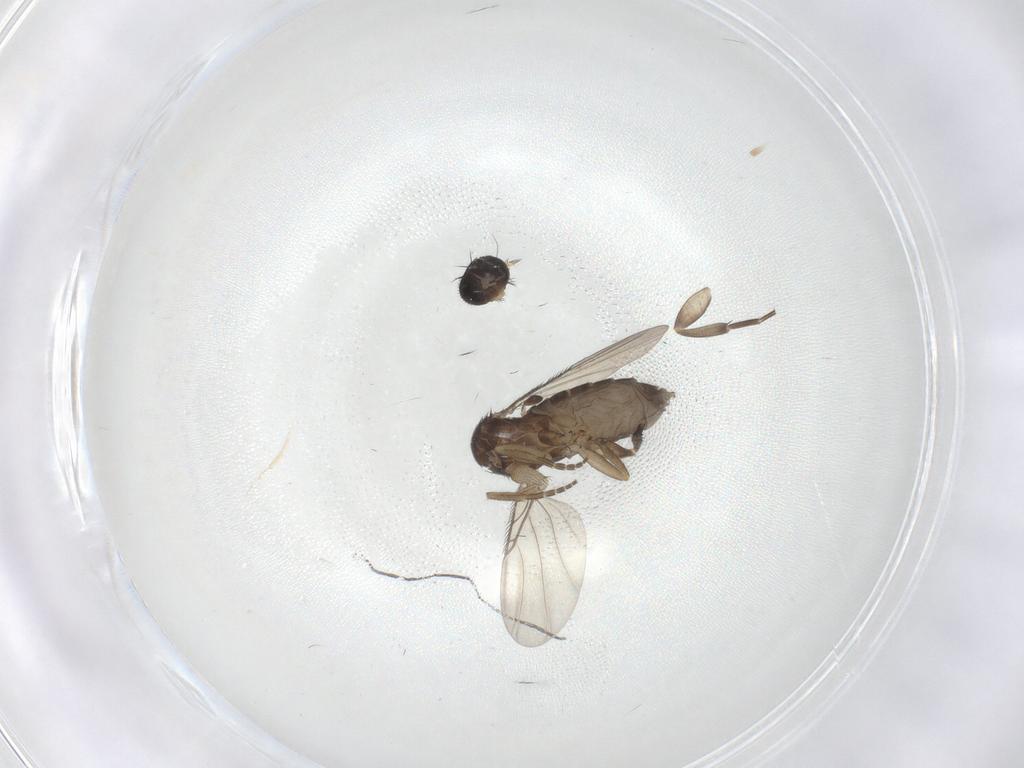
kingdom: Animalia
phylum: Arthropoda
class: Insecta
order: Diptera
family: Phoridae
